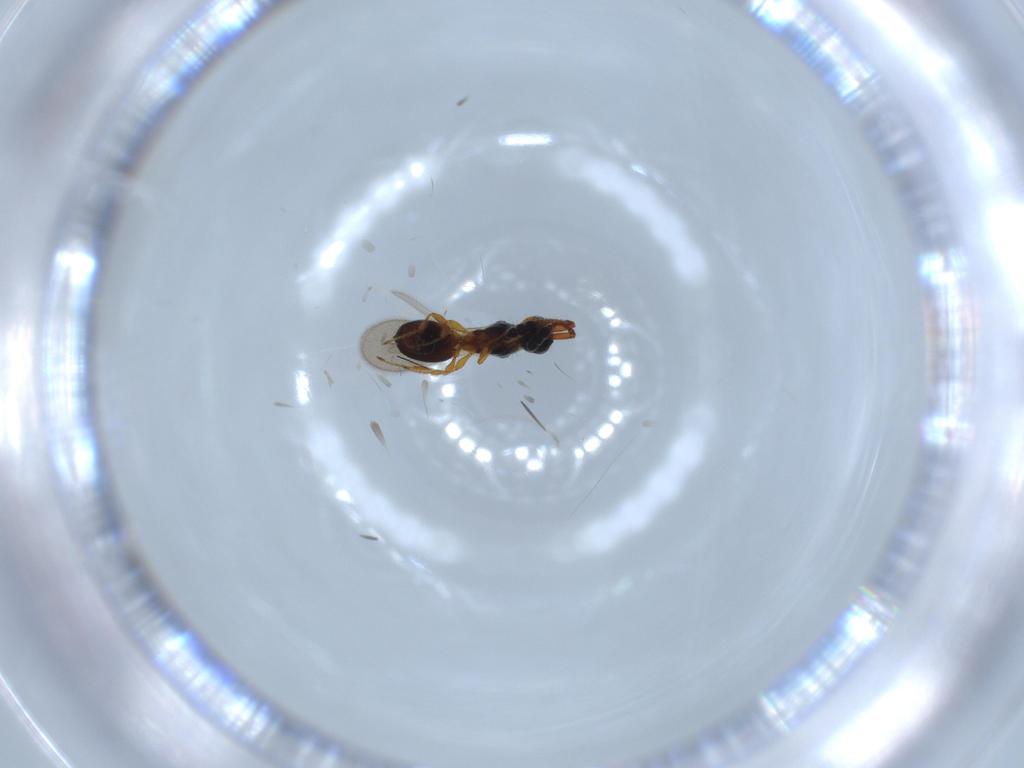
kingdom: Animalia
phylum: Arthropoda
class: Insecta
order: Hymenoptera
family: Diapriidae
